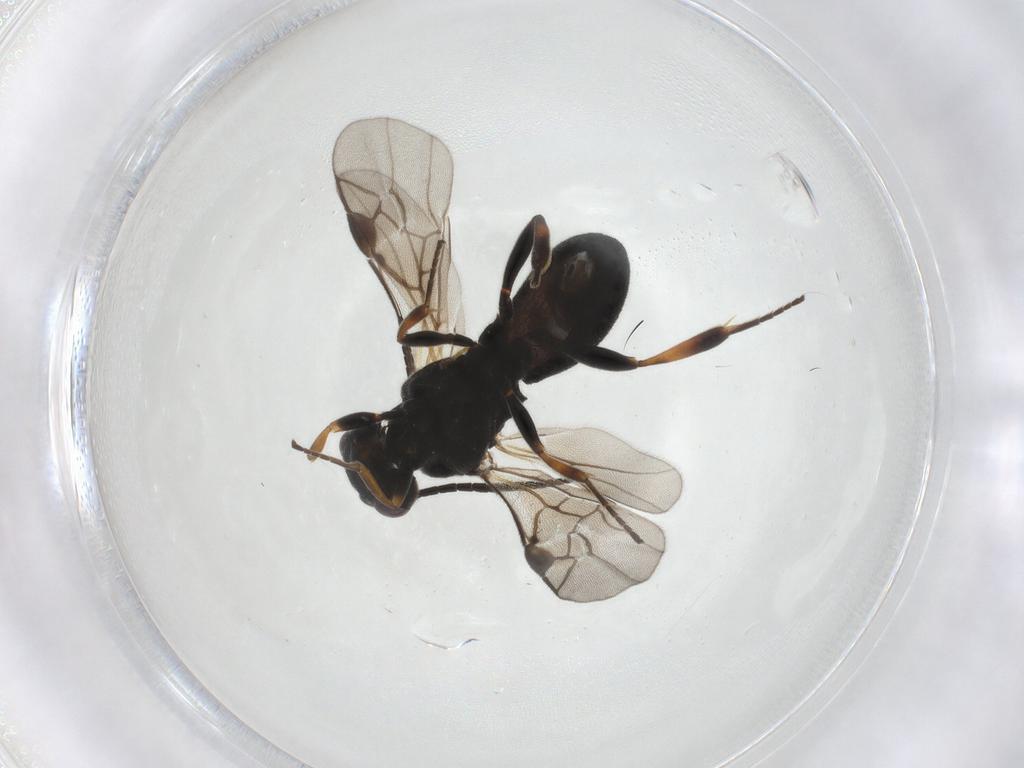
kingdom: Animalia
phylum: Arthropoda
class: Insecta
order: Hymenoptera
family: Braconidae
